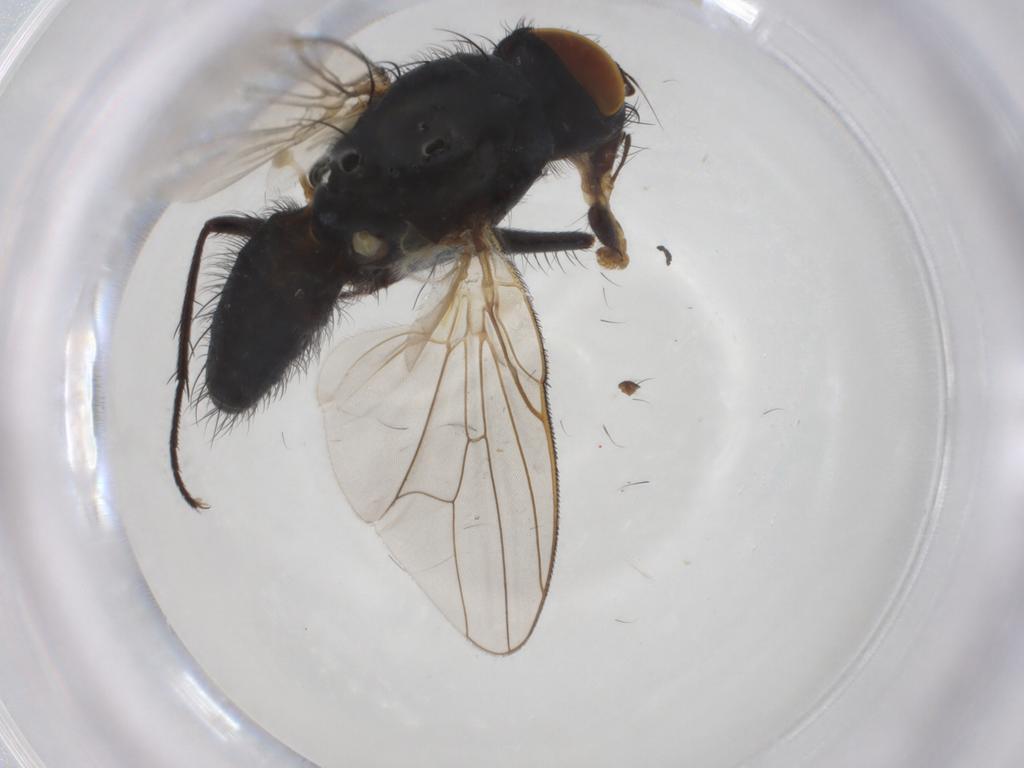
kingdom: Animalia
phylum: Arthropoda
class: Insecta
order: Diptera
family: Chironomidae
